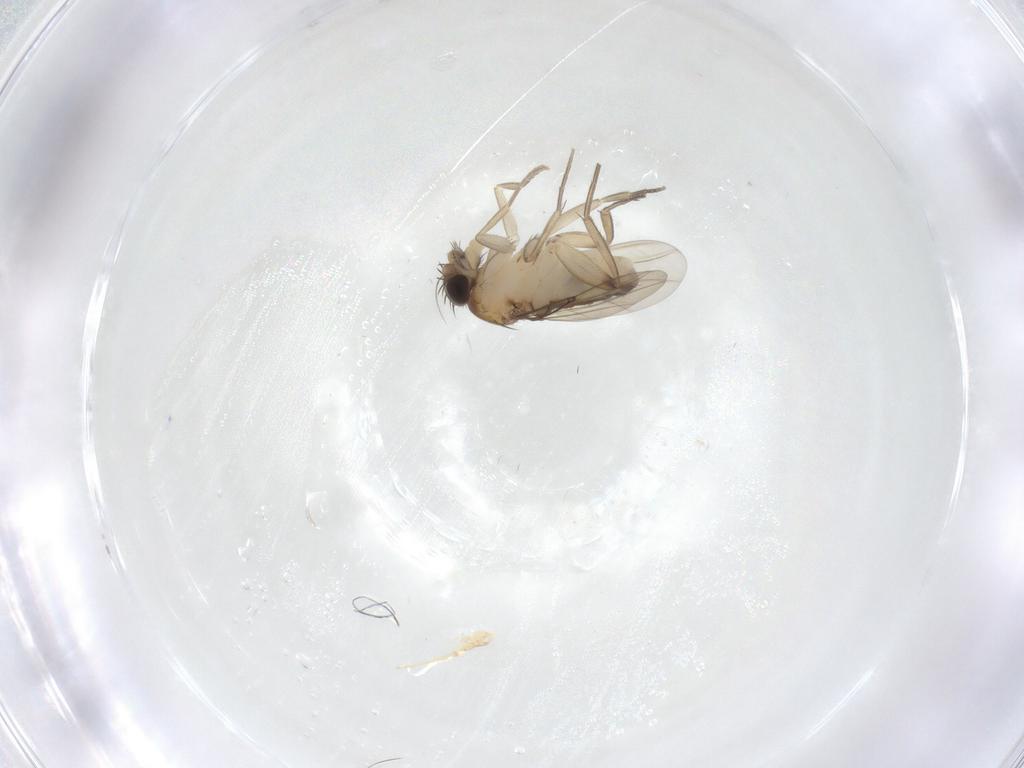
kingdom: Animalia
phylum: Arthropoda
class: Insecta
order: Diptera
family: Phoridae
